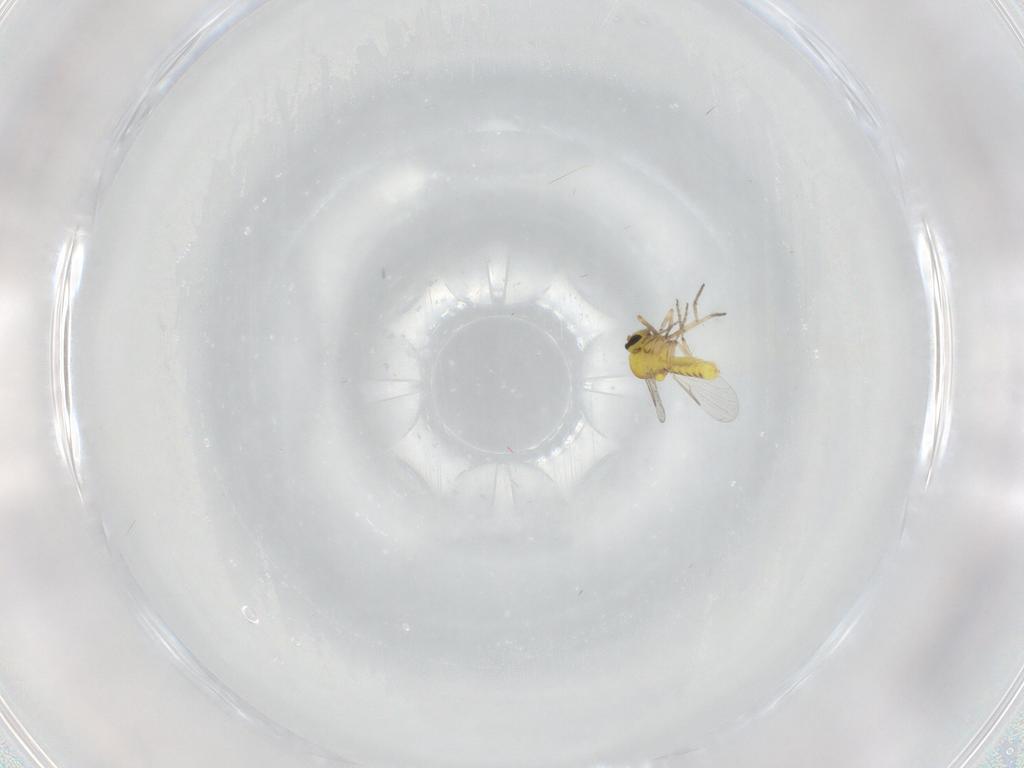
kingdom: Animalia
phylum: Arthropoda
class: Insecta
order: Diptera
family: Ceratopogonidae
